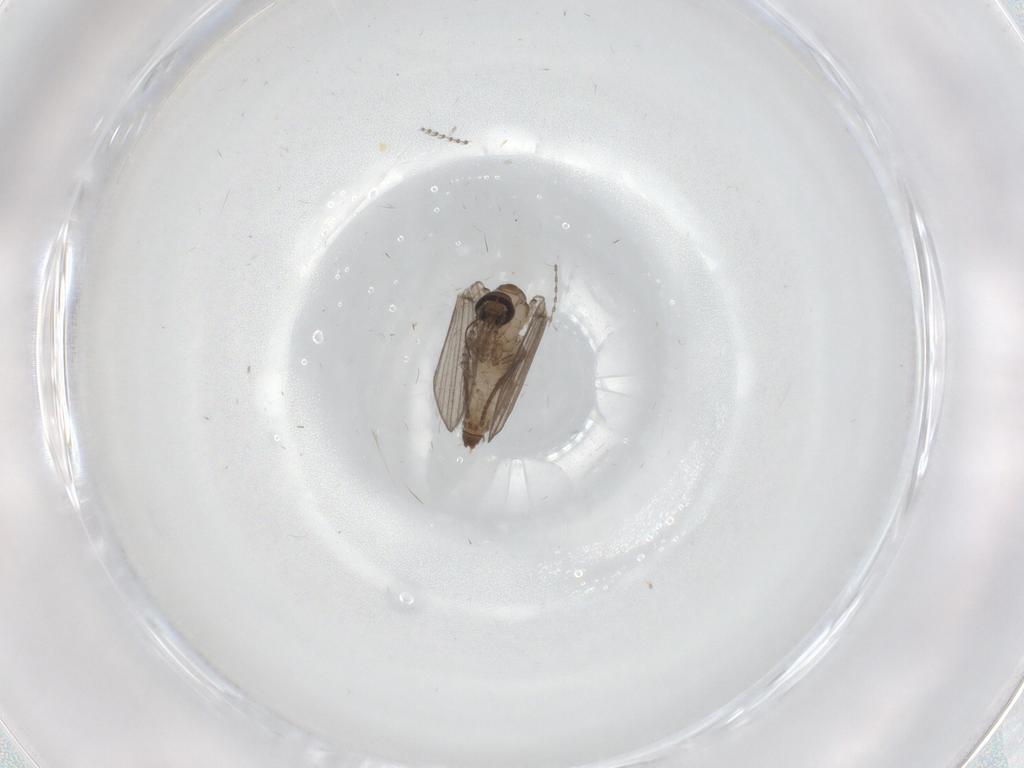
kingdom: Animalia
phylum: Arthropoda
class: Insecta
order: Diptera
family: Psychodidae
